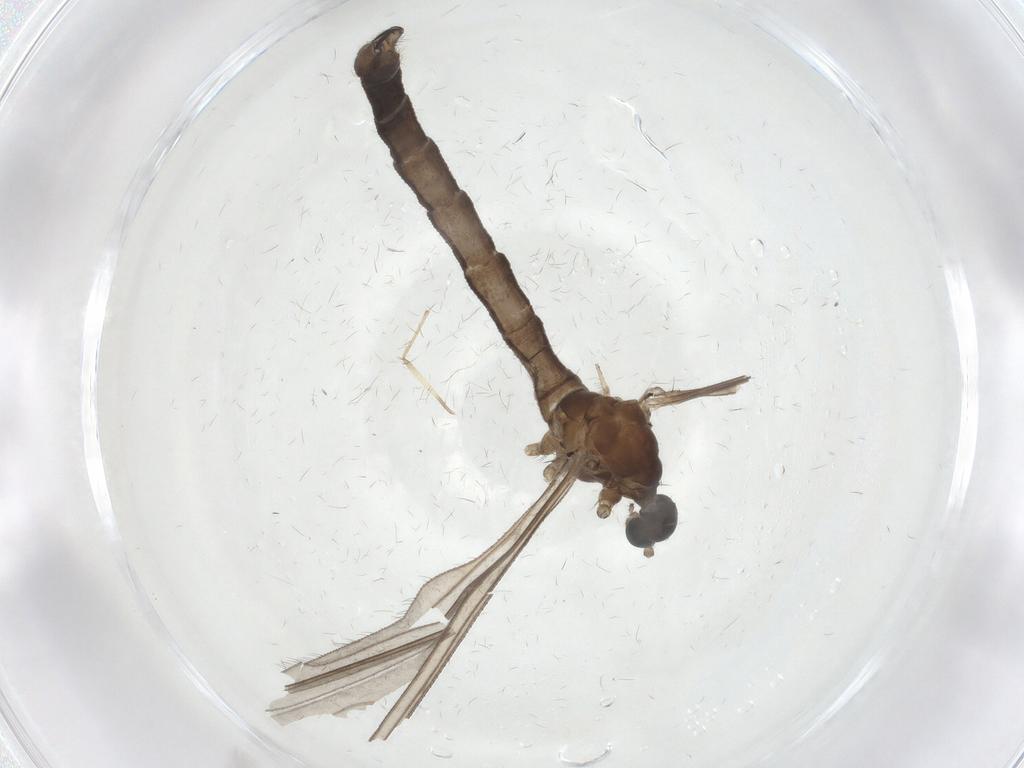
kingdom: Animalia
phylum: Arthropoda
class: Insecta
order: Diptera
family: Limoniidae
